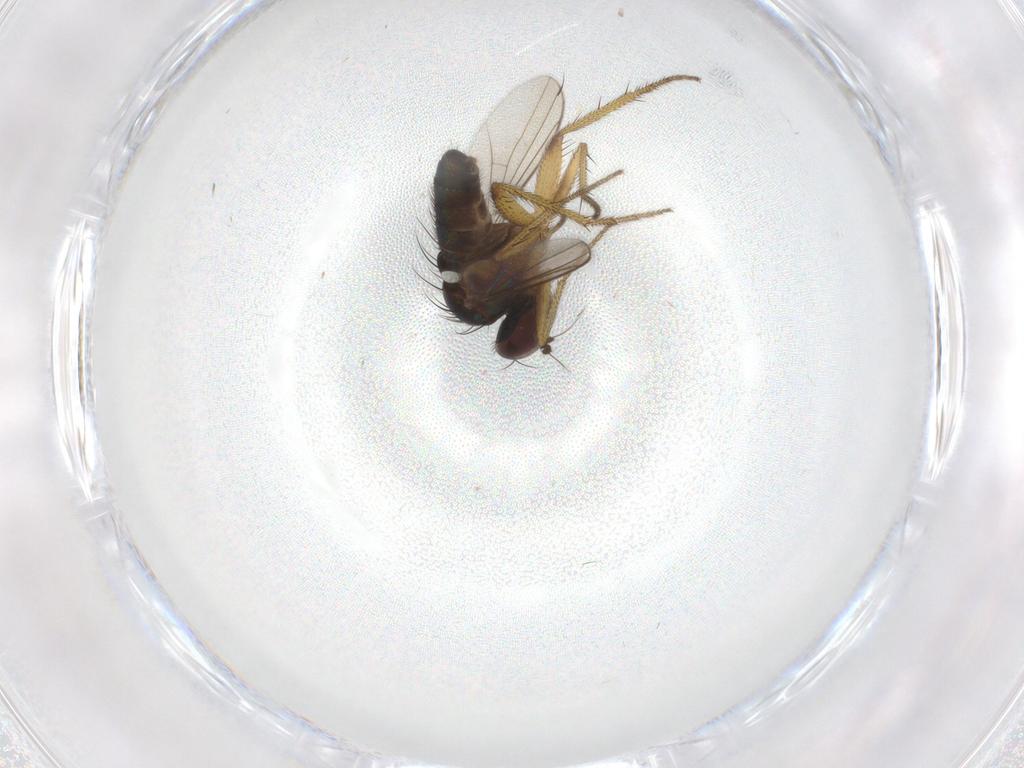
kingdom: Animalia
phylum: Arthropoda
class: Insecta
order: Diptera
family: Dolichopodidae
